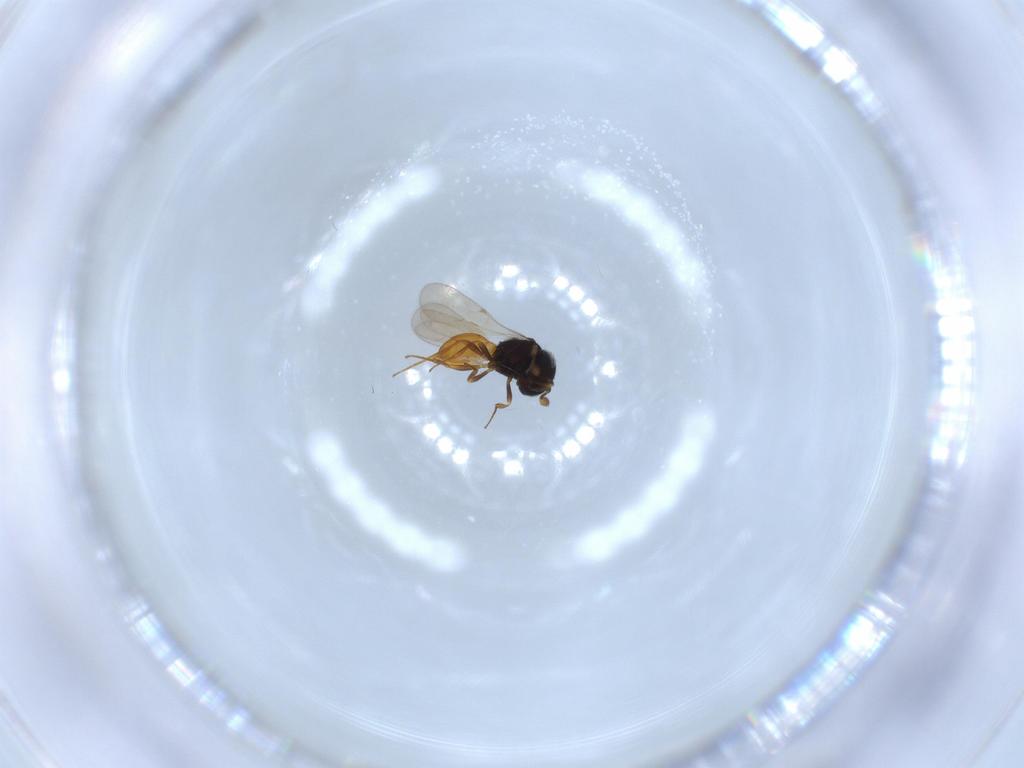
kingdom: Animalia
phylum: Arthropoda
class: Insecta
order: Hymenoptera
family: Scelionidae
